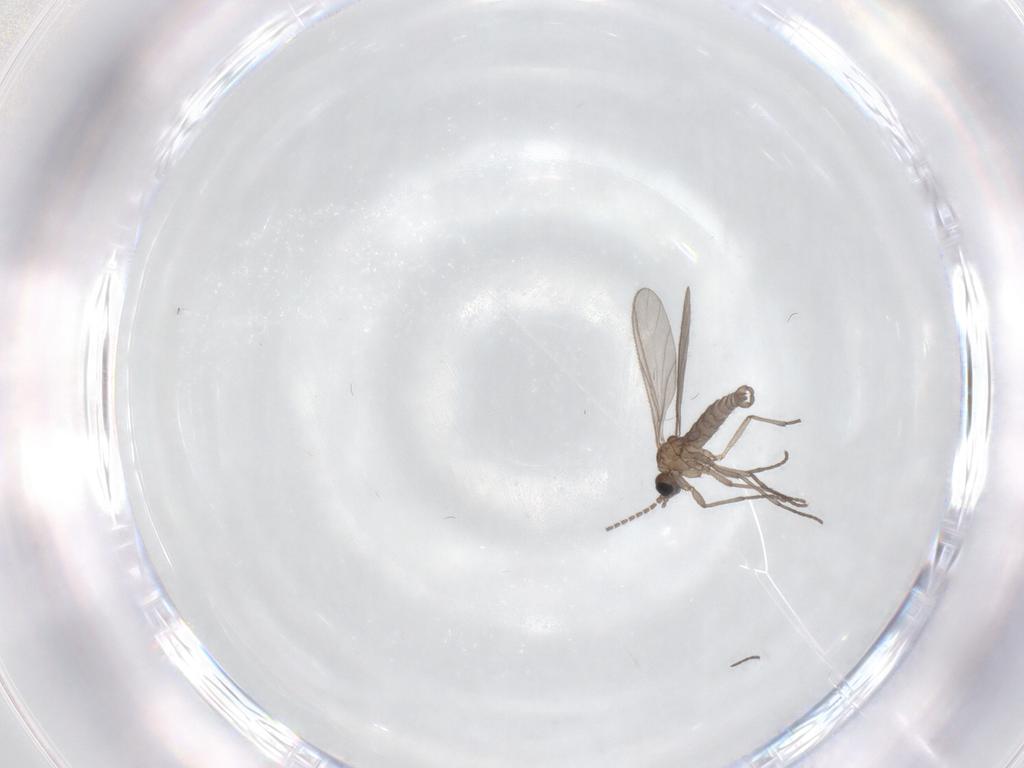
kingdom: Animalia
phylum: Arthropoda
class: Insecta
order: Diptera
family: Sciaridae
